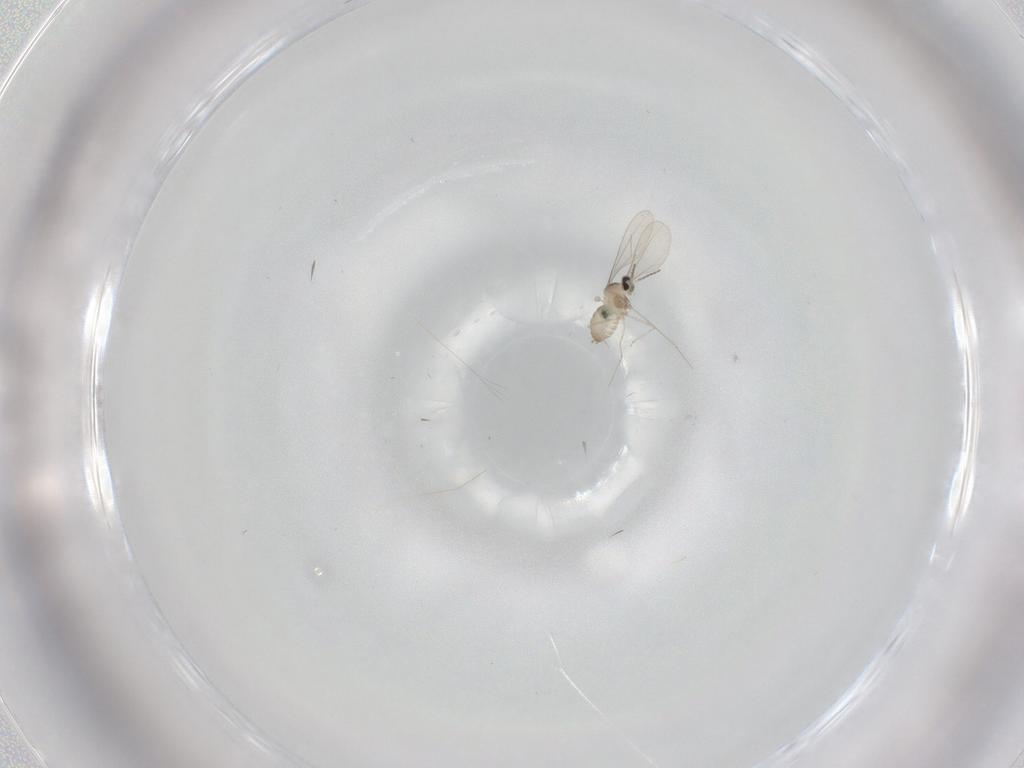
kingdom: Animalia
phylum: Arthropoda
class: Insecta
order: Diptera
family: Cecidomyiidae
